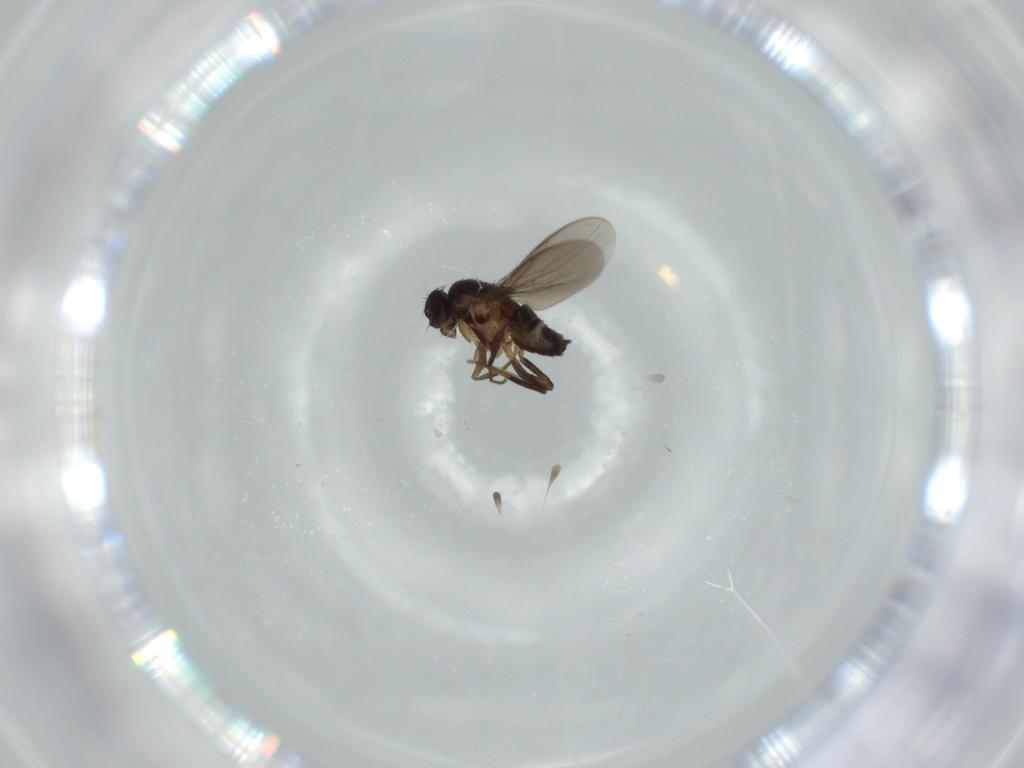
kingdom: Animalia
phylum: Arthropoda
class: Insecta
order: Diptera
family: Sphaeroceridae
